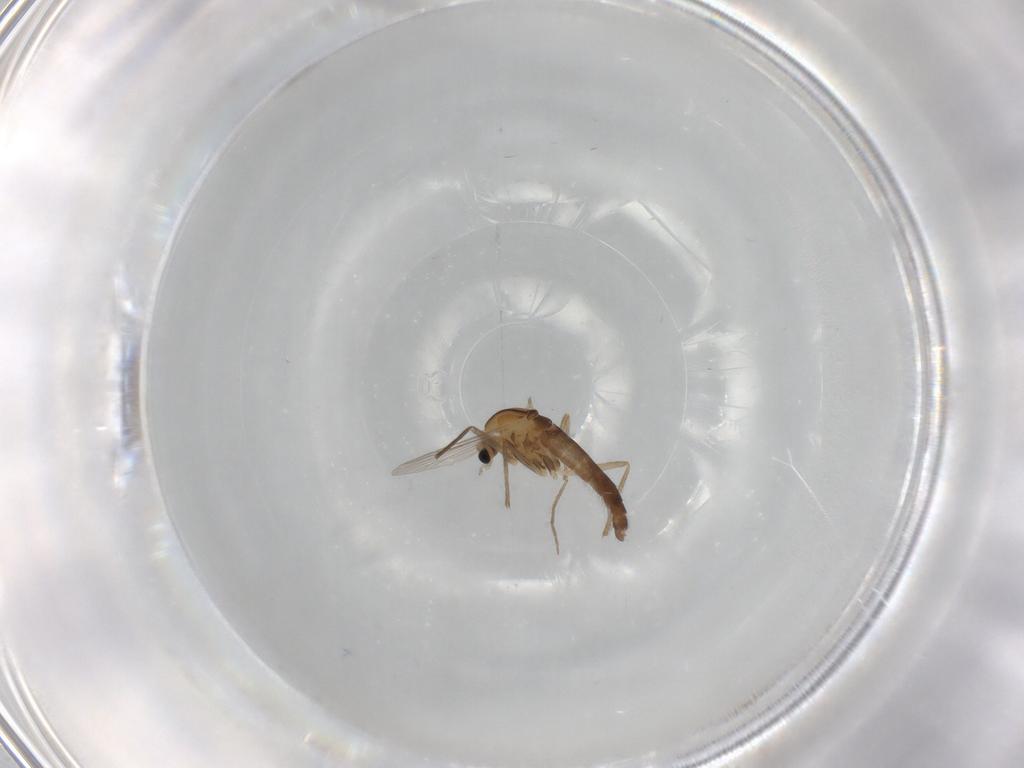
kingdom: Animalia
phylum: Arthropoda
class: Insecta
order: Diptera
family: Chironomidae
